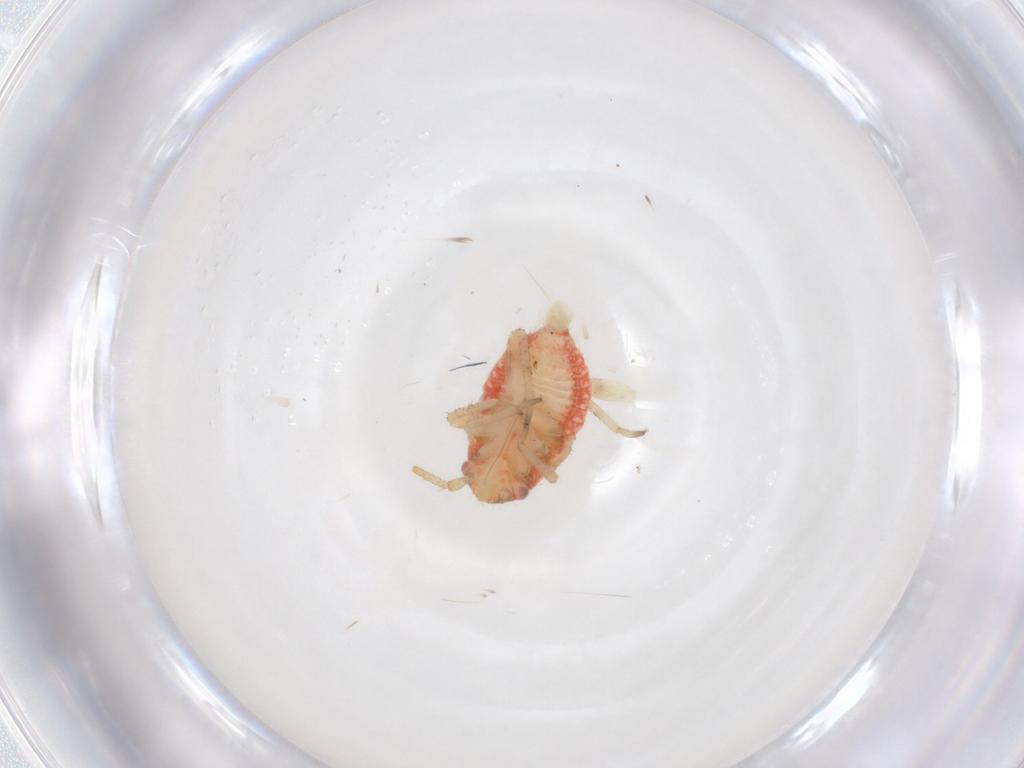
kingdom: Animalia
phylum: Arthropoda
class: Insecta
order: Hemiptera
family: Miridae
